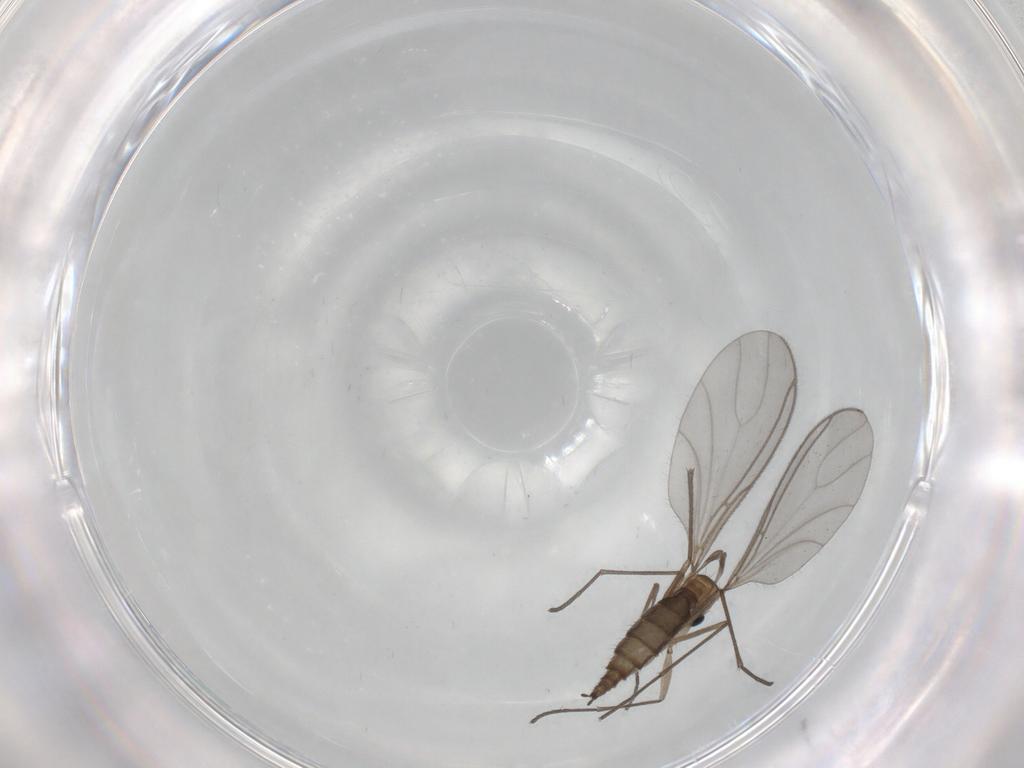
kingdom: Animalia
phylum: Arthropoda
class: Insecta
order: Diptera
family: Sciaridae
